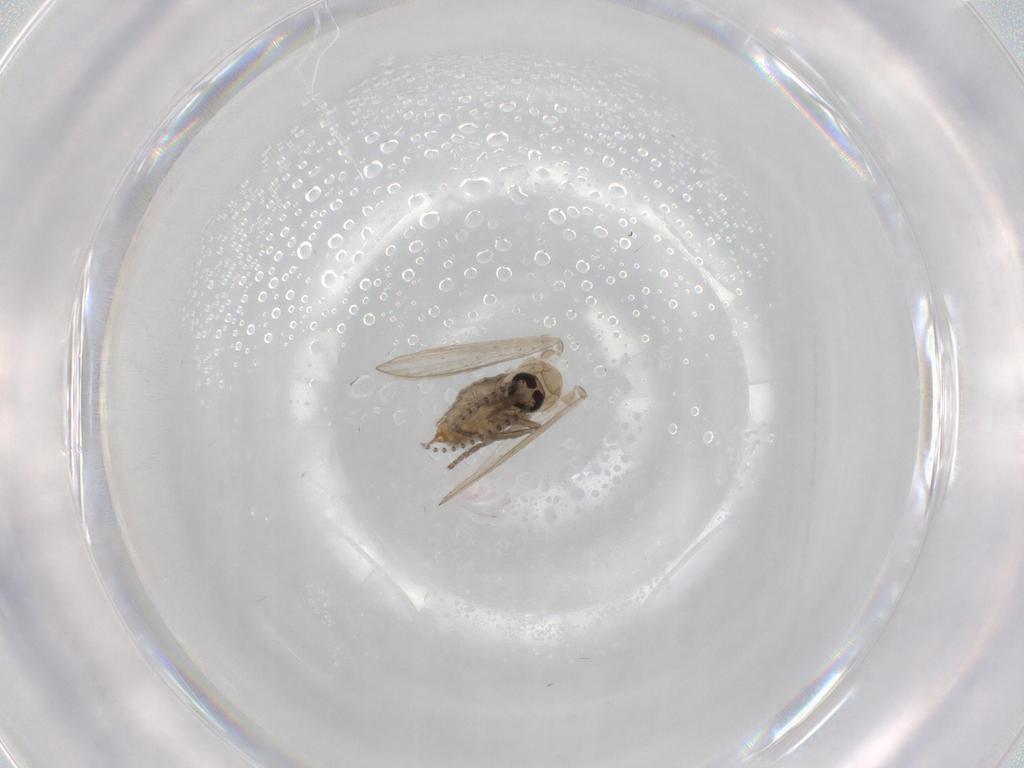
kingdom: Animalia
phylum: Arthropoda
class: Insecta
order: Diptera
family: Psychodidae
